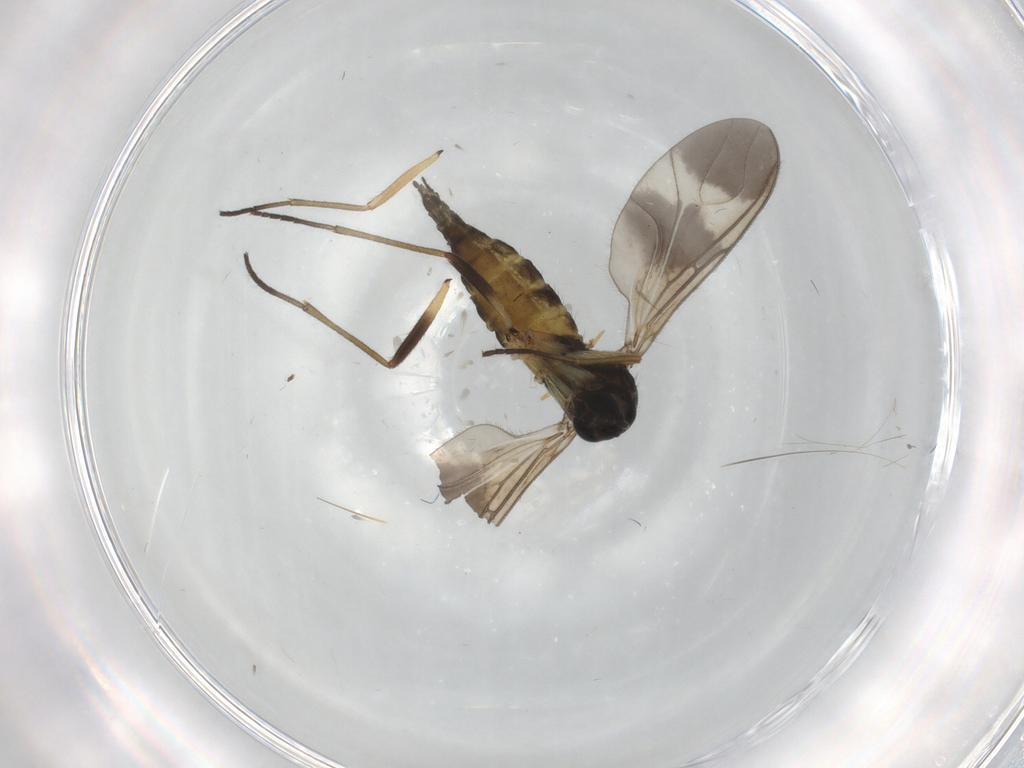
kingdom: Animalia
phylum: Arthropoda
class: Insecta
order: Diptera
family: Sciaridae
